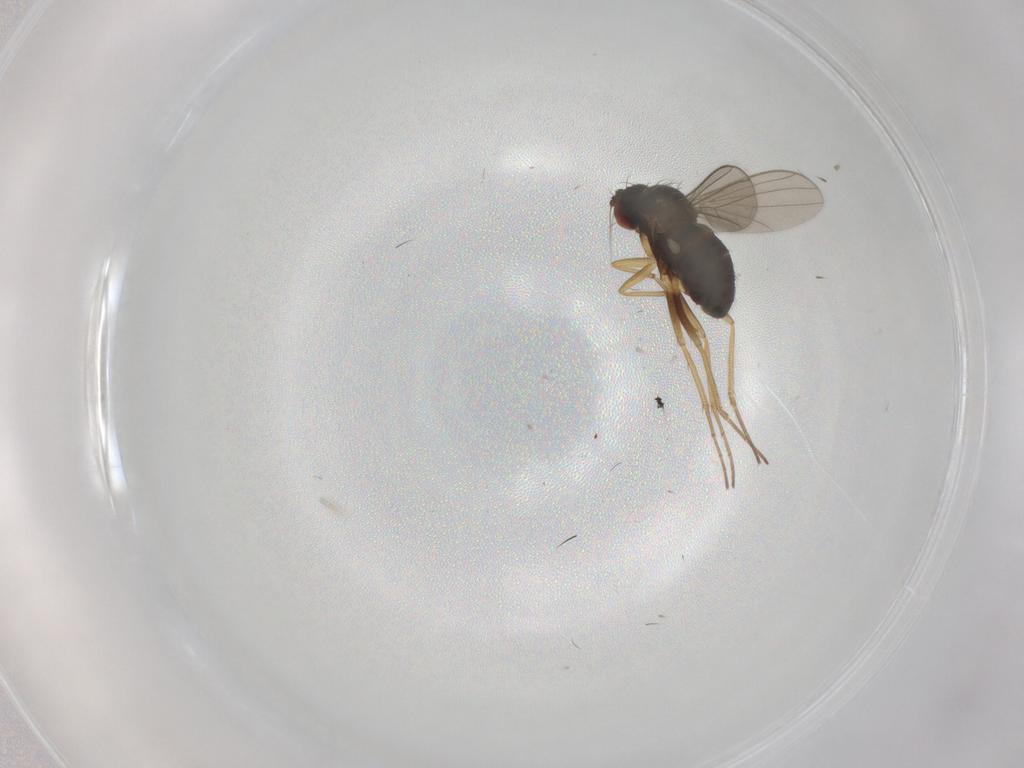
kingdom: Animalia
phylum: Arthropoda
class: Insecta
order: Diptera
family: Dolichopodidae
